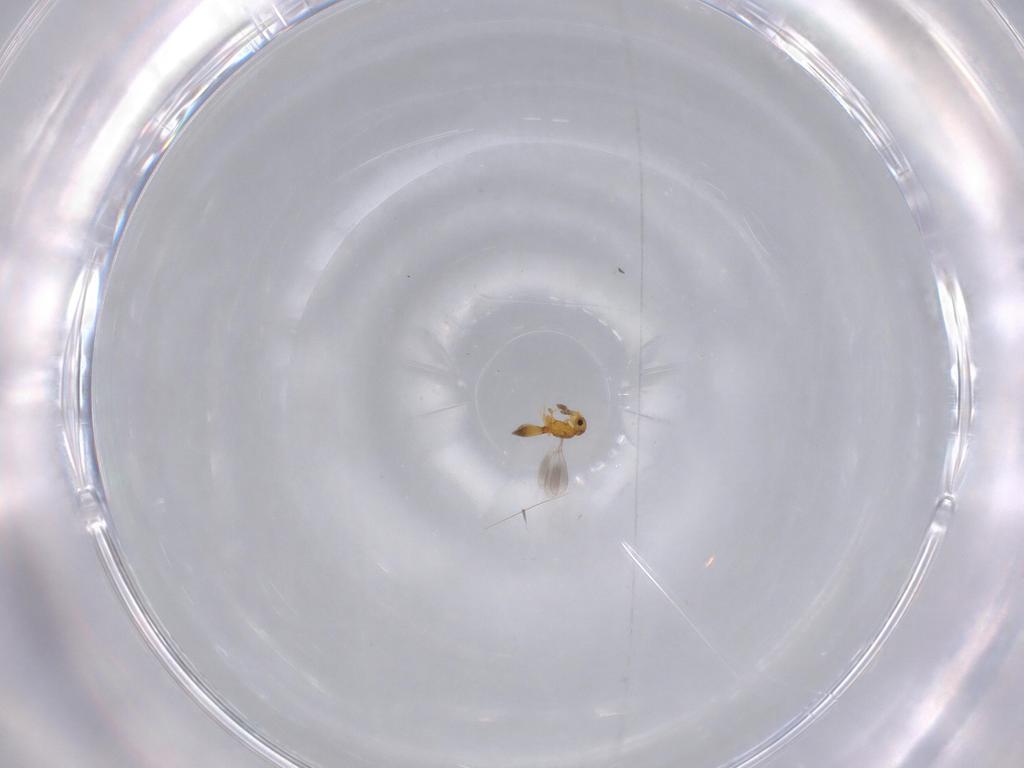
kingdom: Animalia
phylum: Arthropoda
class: Insecta
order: Hymenoptera
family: Platygastridae
